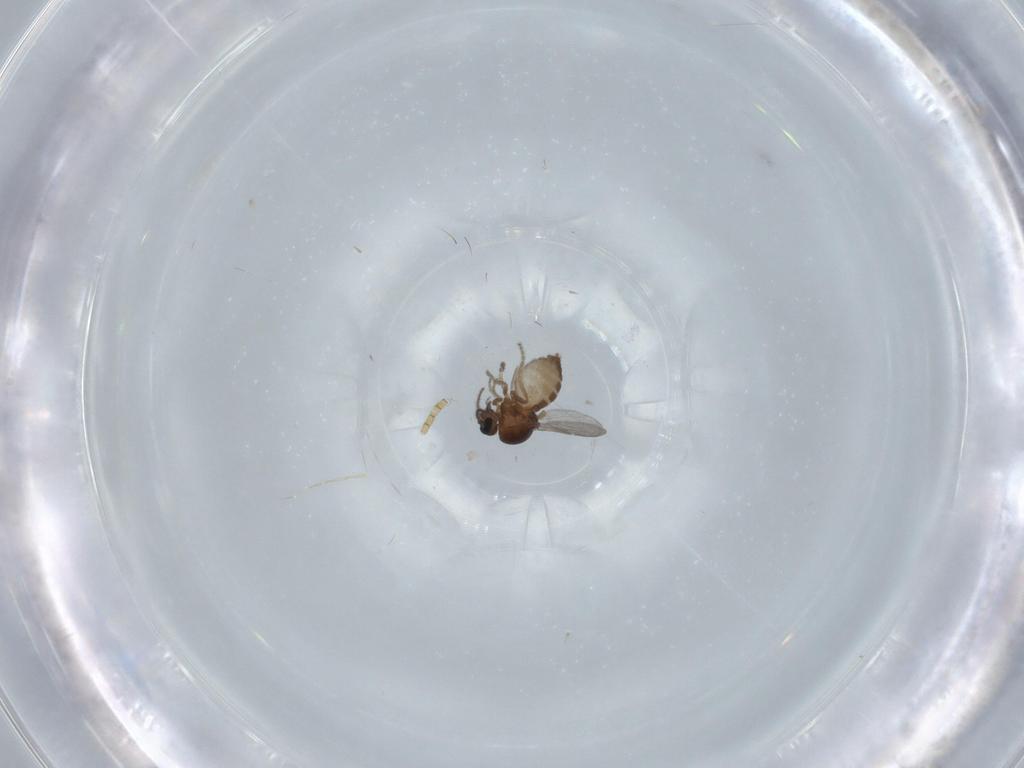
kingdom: Animalia
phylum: Arthropoda
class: Insecta
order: Diptera
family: Ceratopogonidae
